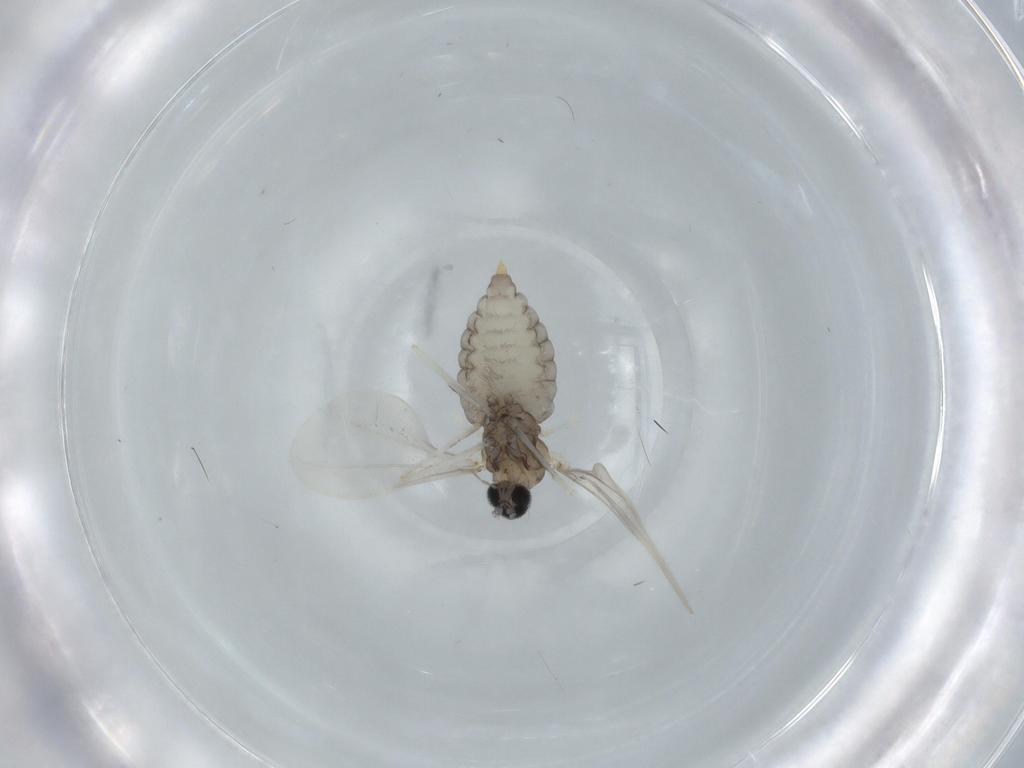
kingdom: Animalia
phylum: Arthropoda
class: Insecta
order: Diptera
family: Cecidomyiidae
